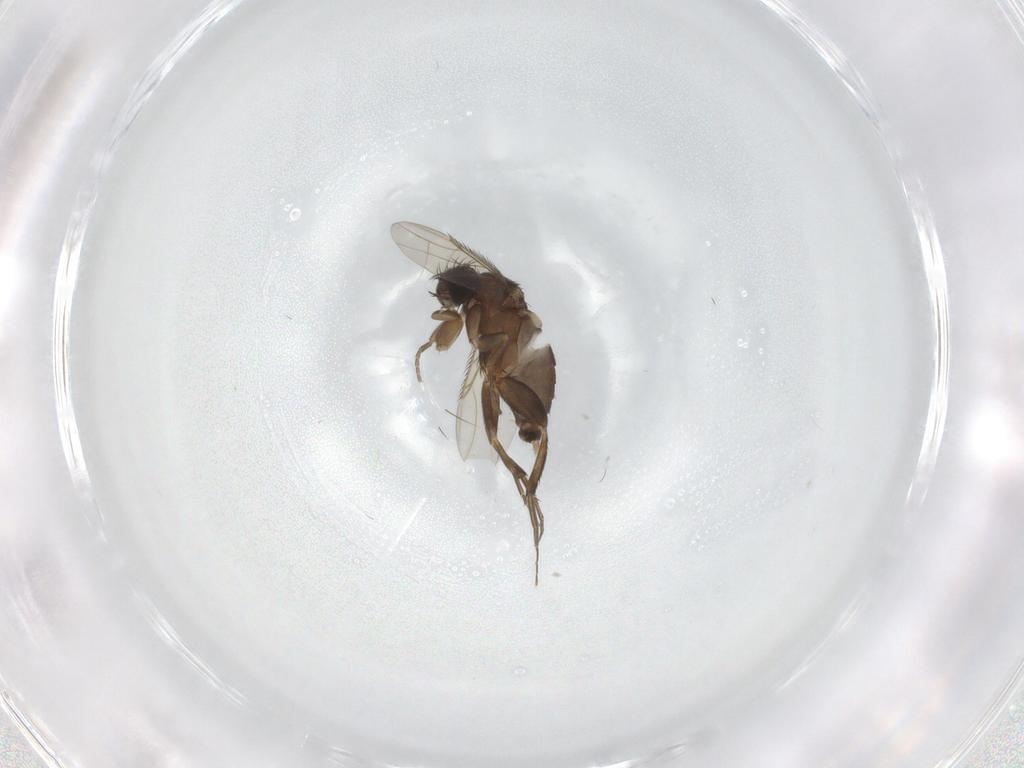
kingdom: Animalia
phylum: Arthropoda
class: Insecta
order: Diptera
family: Phoridae
